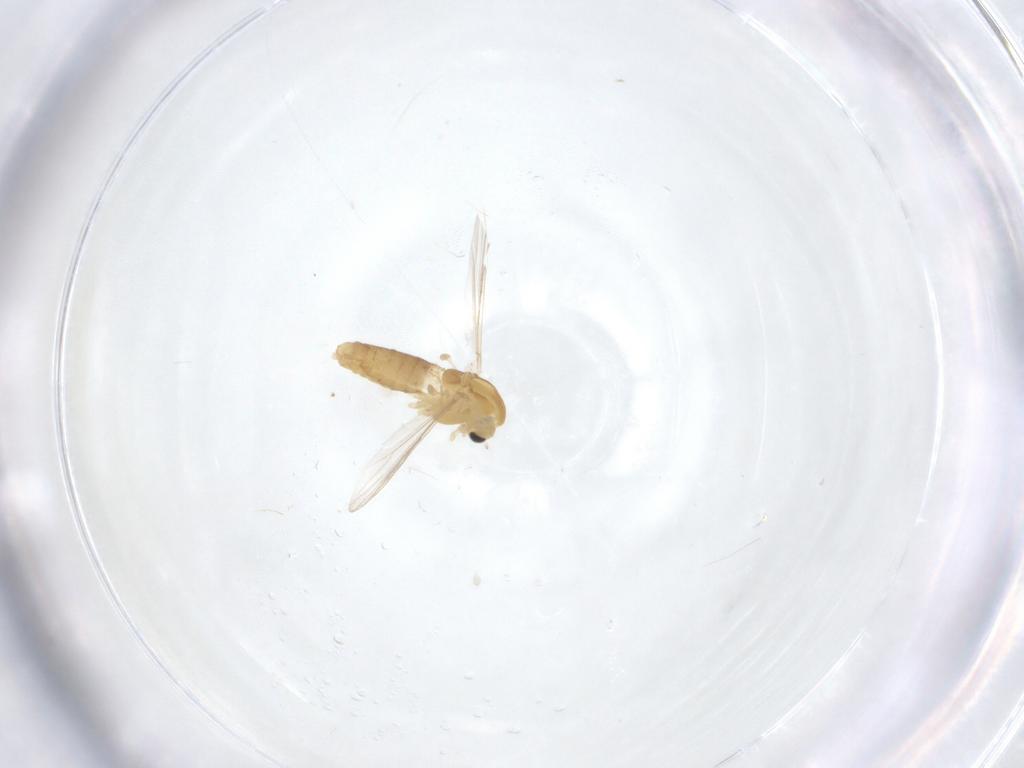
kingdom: Animalia
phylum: Arthropoda
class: Insecta
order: Diptera
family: Chironomidae
